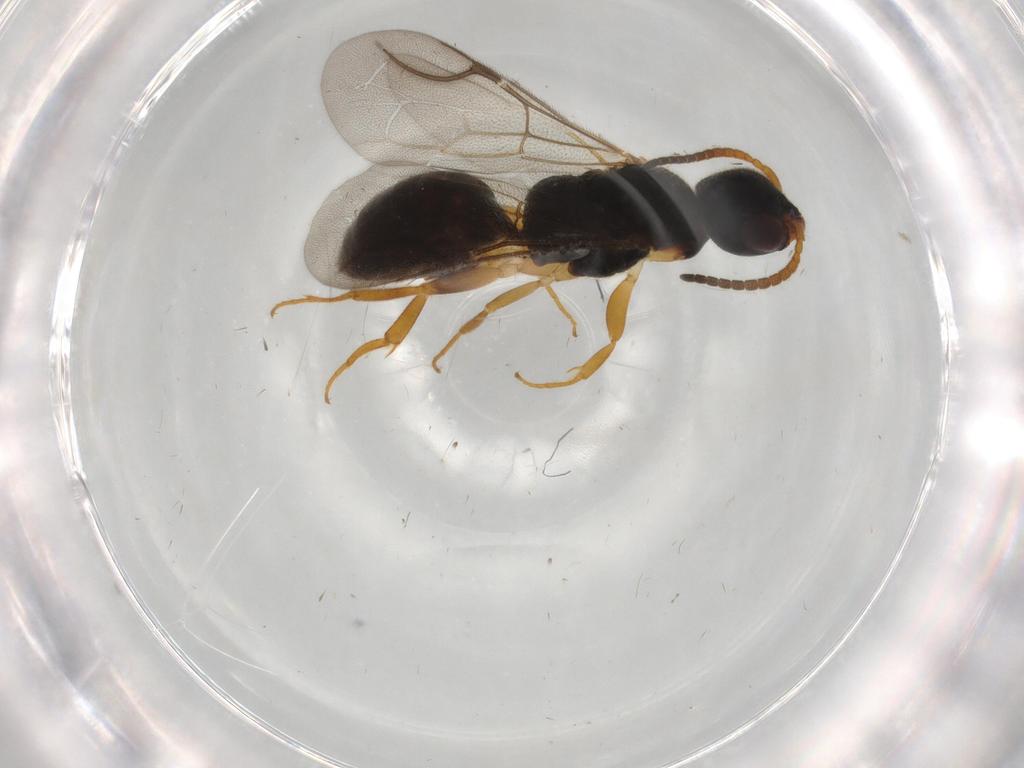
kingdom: Animalia
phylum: Arthropoda
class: Insecta
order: Hymenoptera
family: Bethylidae
